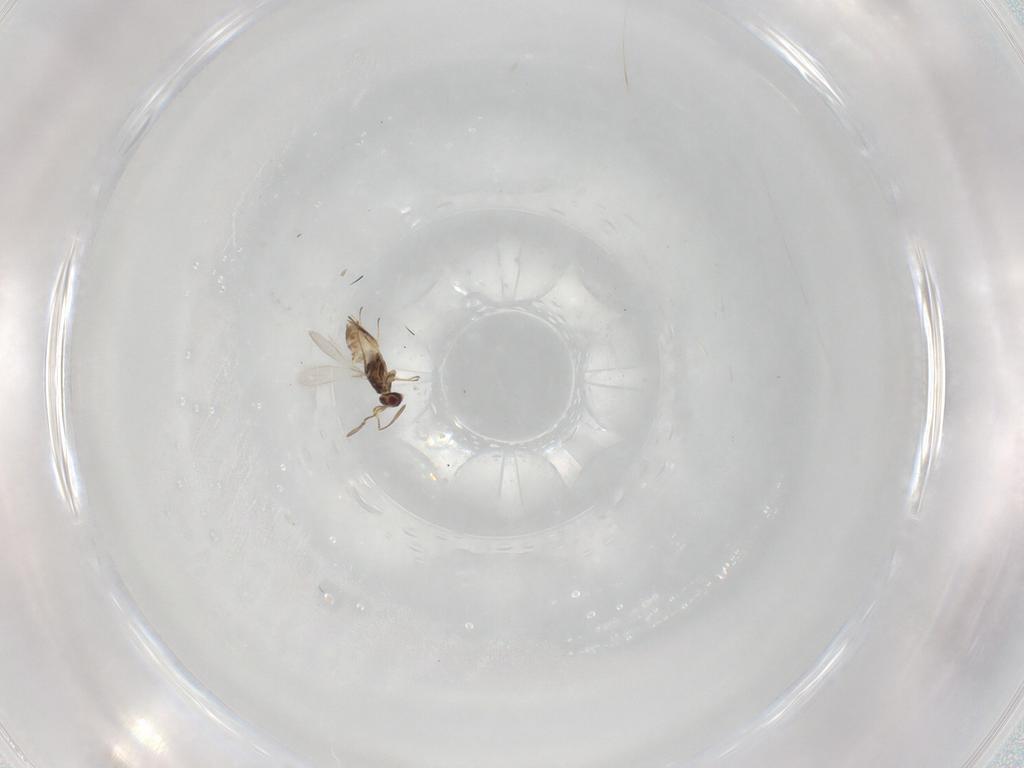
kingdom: Animalia
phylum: Arthropoda
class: Insecta
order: Hymenoptera
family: Mymaridae
